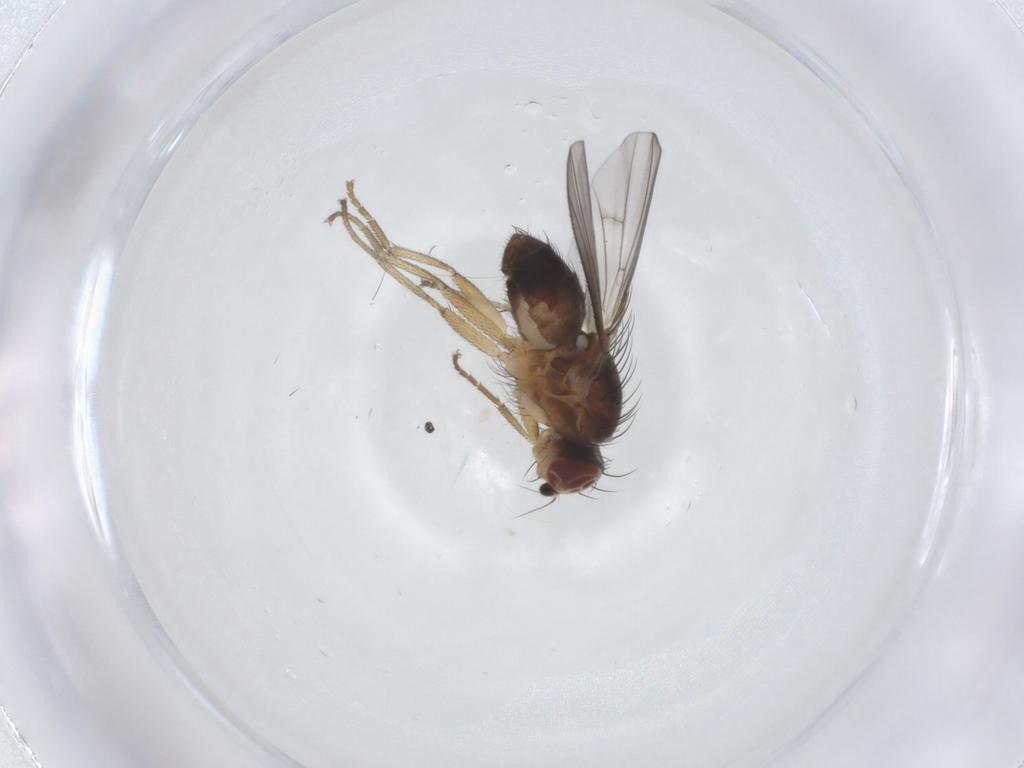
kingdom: Animalia
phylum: Arthropoda
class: Insecta
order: Diptera
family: Heleomyzidae
